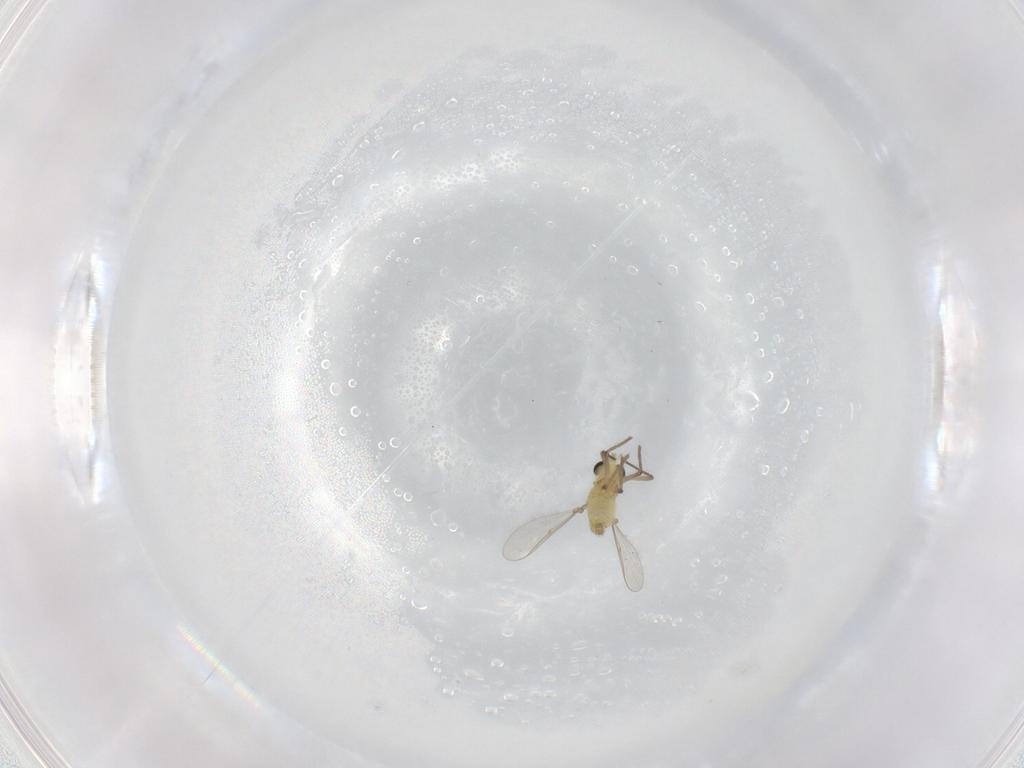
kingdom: Animalia
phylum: Arthropoda
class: Insecta
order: Diptera
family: Chironomidae
